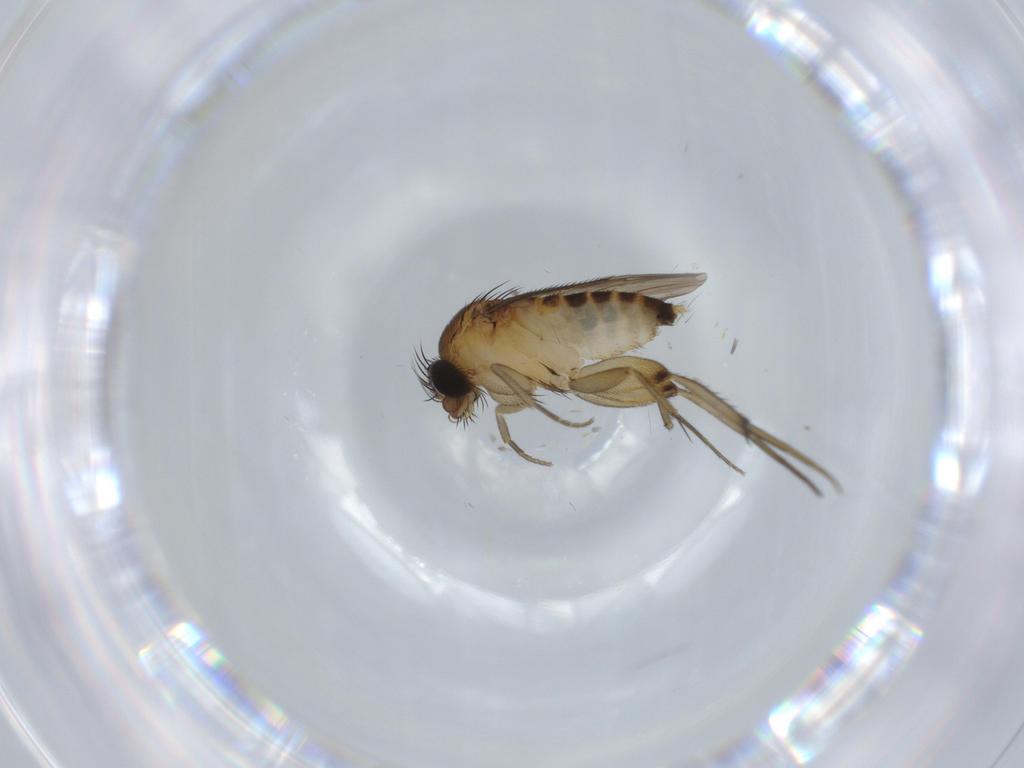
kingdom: Animalia
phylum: Arthropoda
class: Insecta
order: Diptera
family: Phoridae
